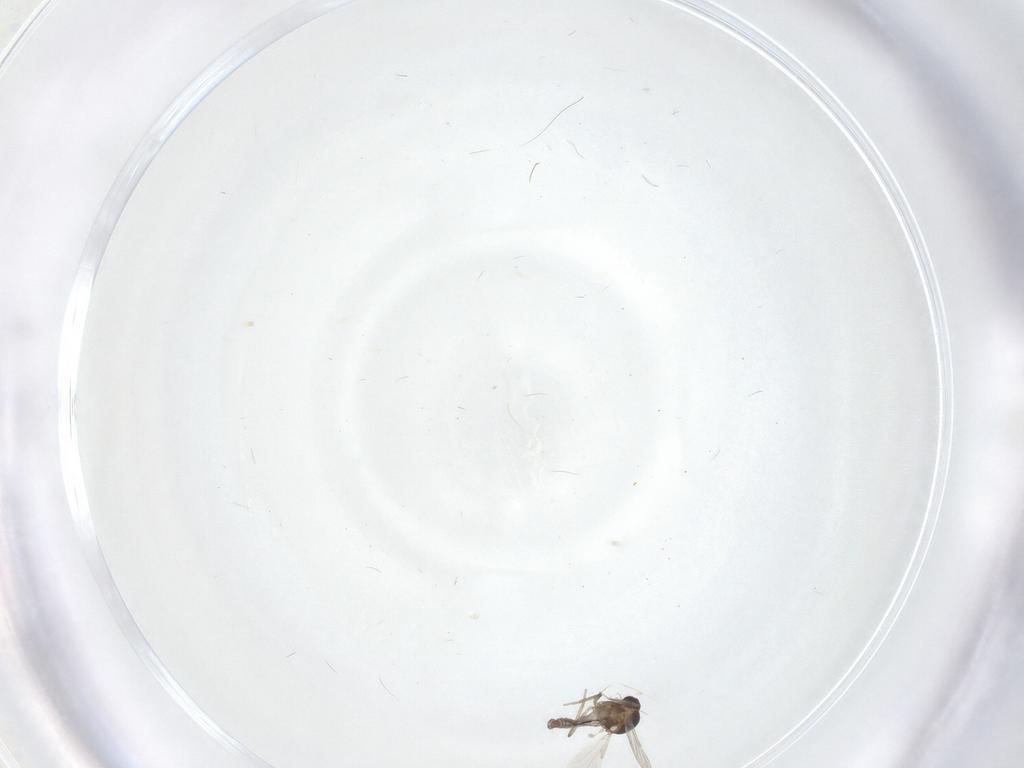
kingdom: Animalia
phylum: Arthropoda
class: Insecta
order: Diptera
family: Ceratopogonidae
